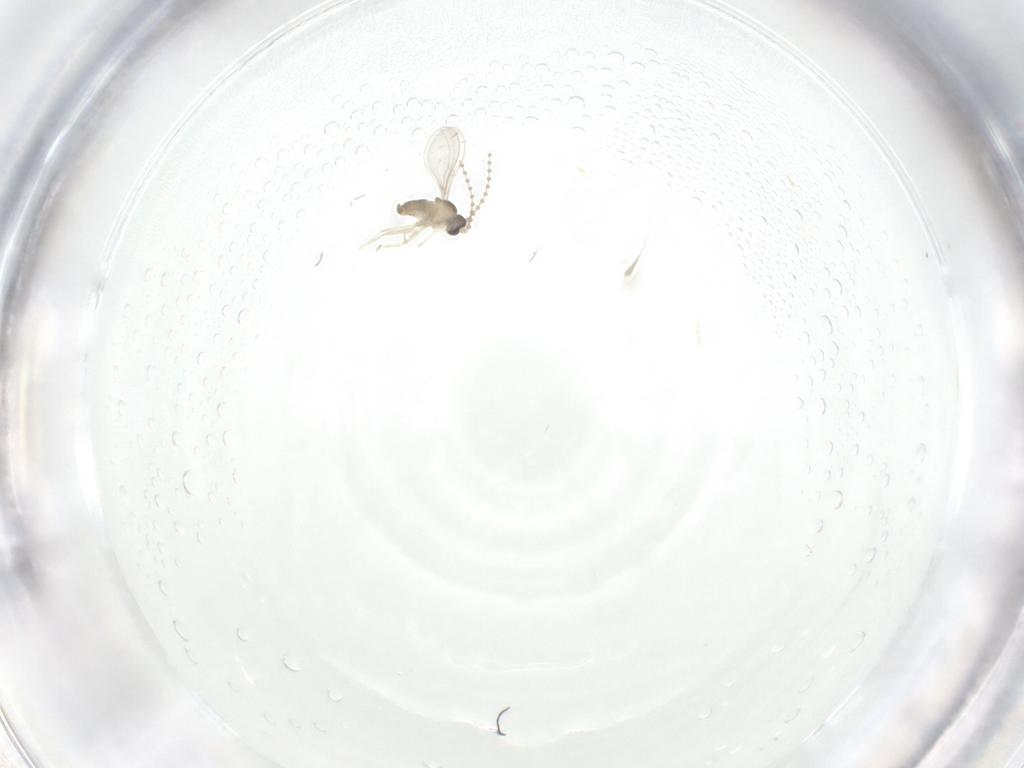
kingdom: Animalia
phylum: Arthropoda
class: Insecta
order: Diptera
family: Cecidomyiidae
